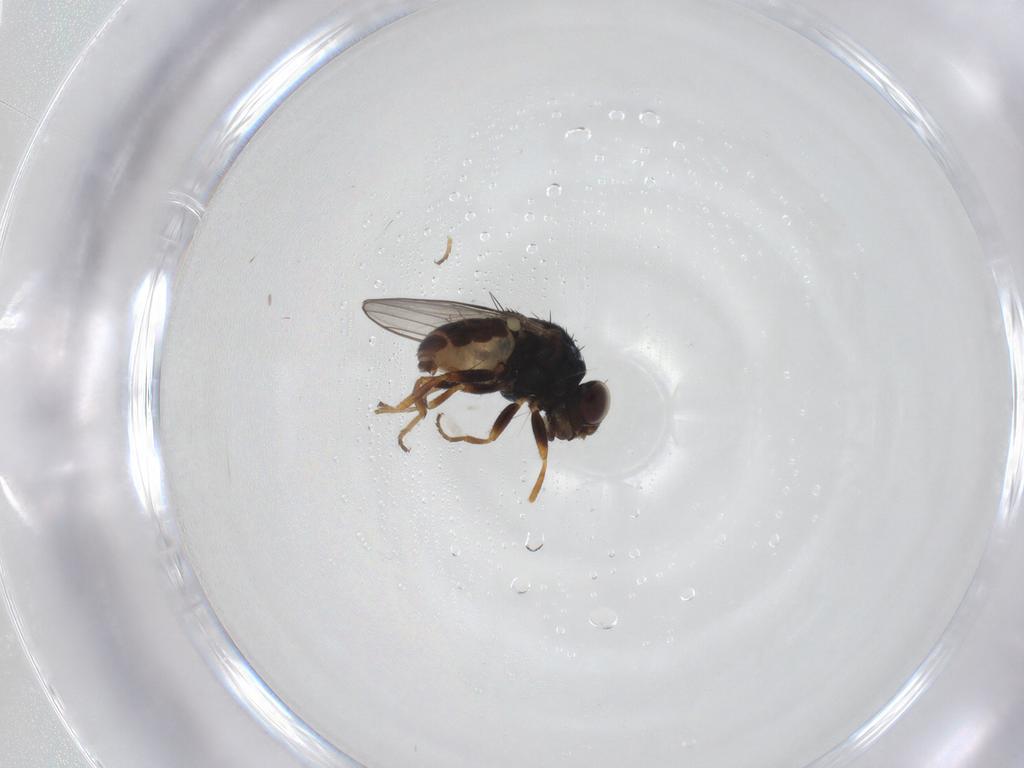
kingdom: Animalia
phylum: Arthropoda
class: Insecta
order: Diptera
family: Chloropidae
